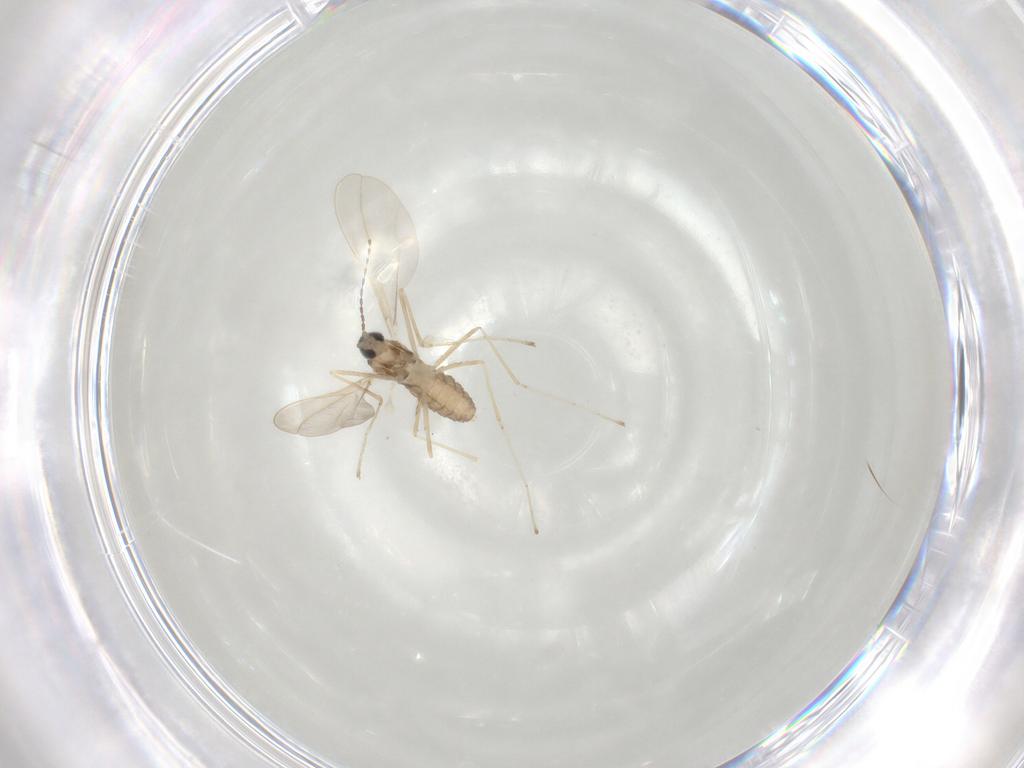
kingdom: Animalia
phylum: Arthropoda
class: Insecta
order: Diptera
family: Cecidomyiidae
